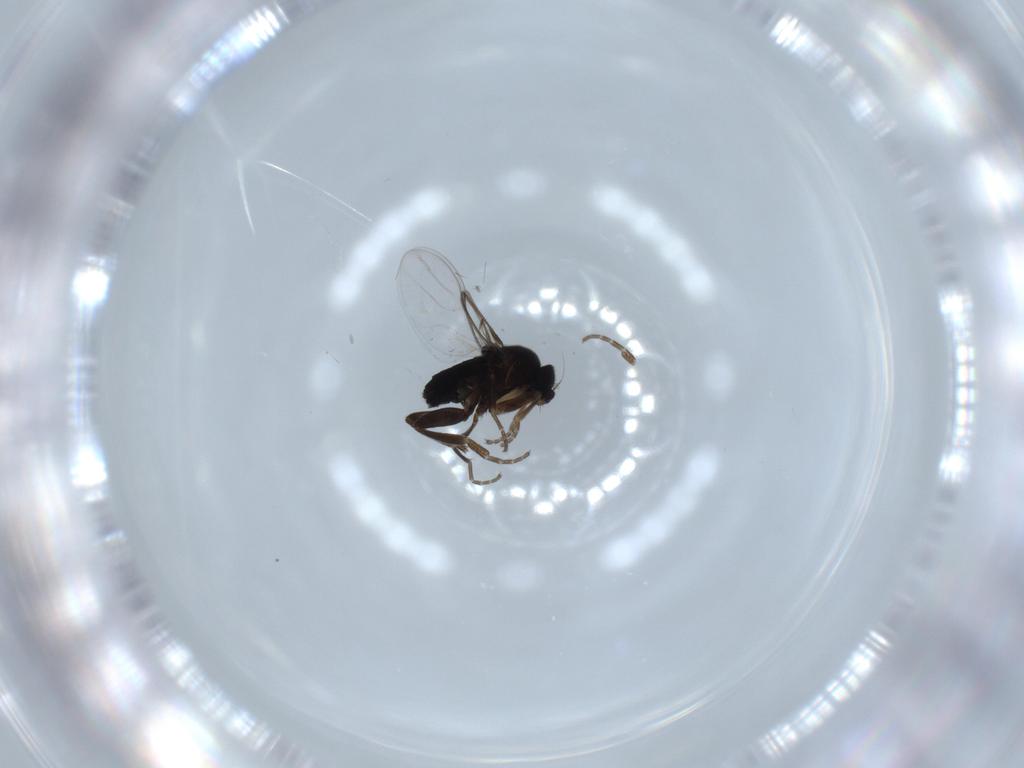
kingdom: Animalia
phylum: Arthropoda
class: Insecta
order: Diptera
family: Phoridae
